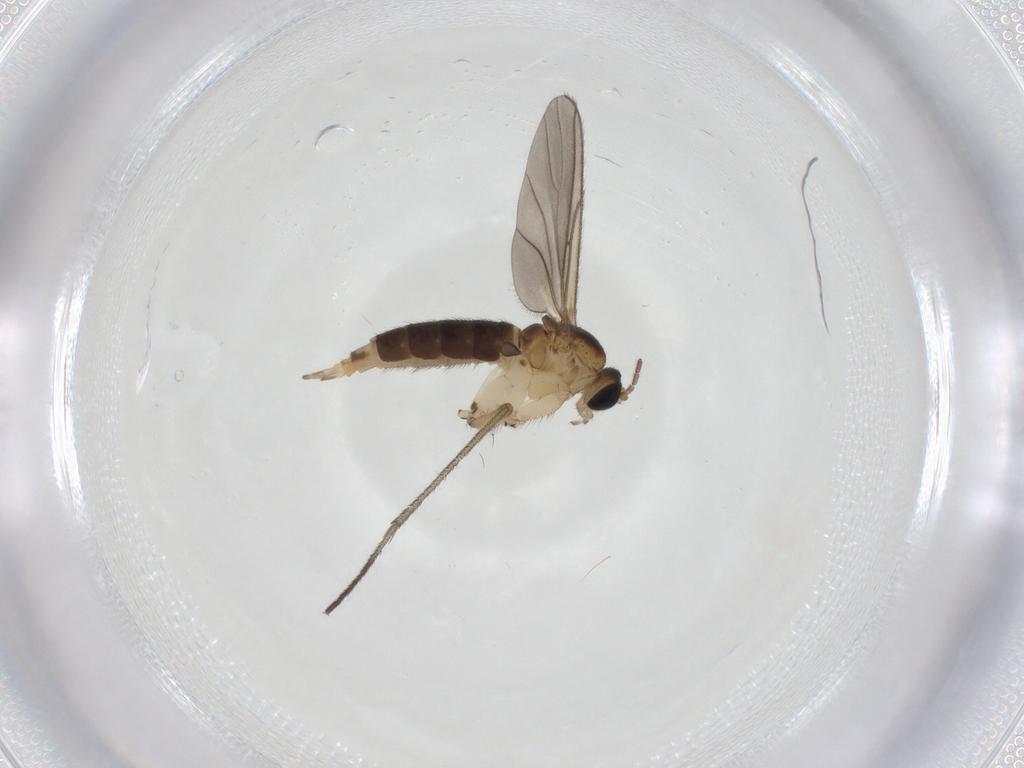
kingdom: Animalia
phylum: Arthropoda
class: Insecta
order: Diptera
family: Sciaridae
